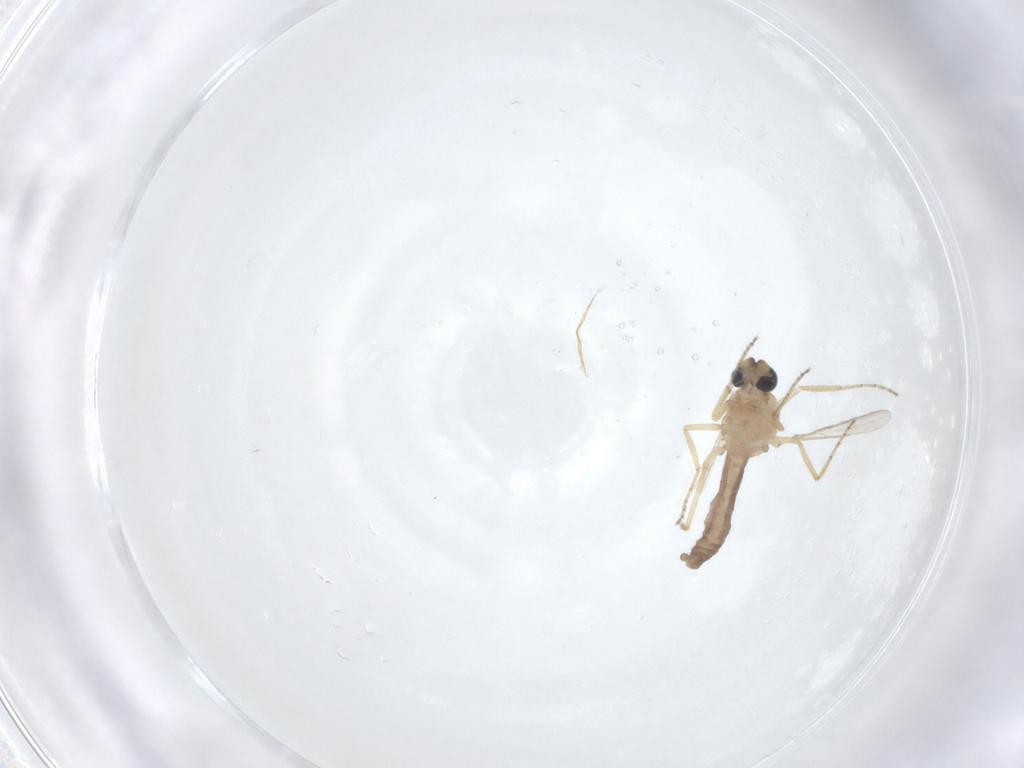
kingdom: Animalia
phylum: Arthropoda
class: Insecta
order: Diptera
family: Ceratopogonidae
